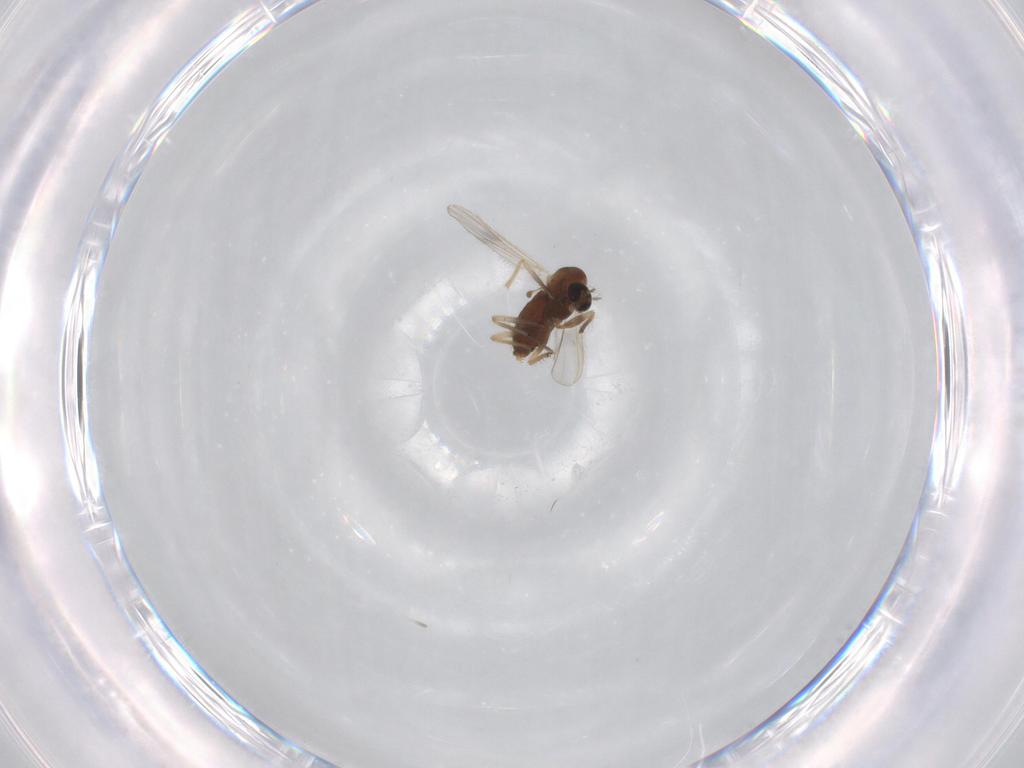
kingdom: Animalia
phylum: Arthropoda
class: Insecta
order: Diptera
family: Chironomidae
